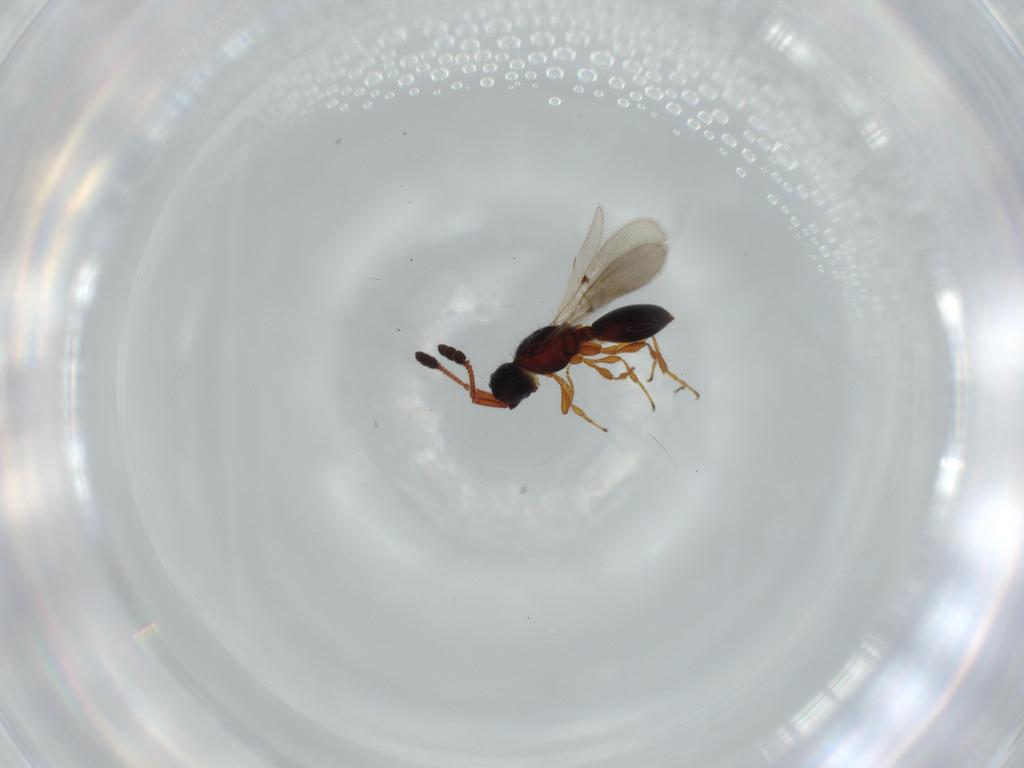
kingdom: Animalia
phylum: Arthropoda
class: Insecta
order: Hymenoptera
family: Diapriidae
